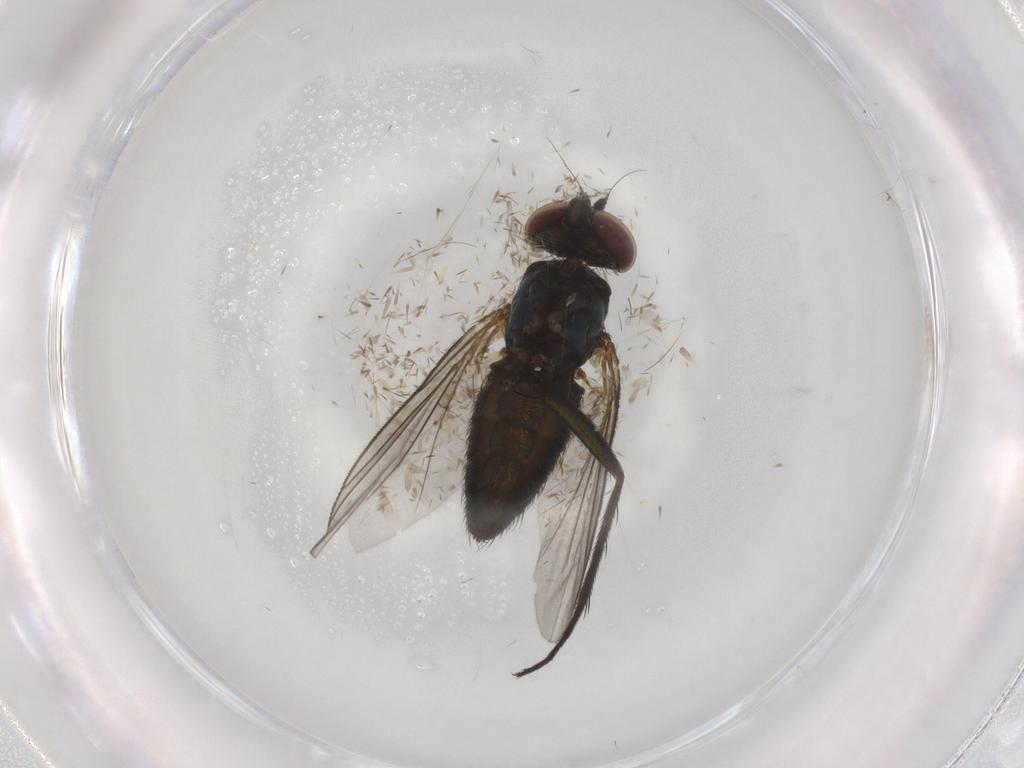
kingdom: Animalia
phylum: Arthropoda
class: Insecta
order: Diptera
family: Dolichopodidae
